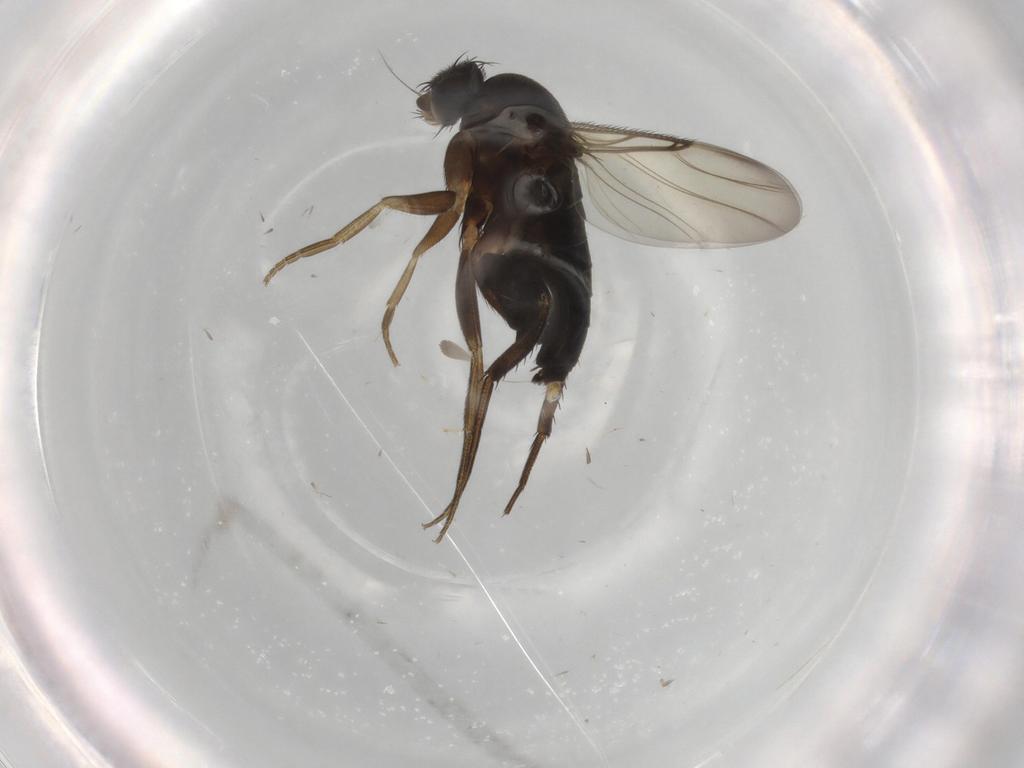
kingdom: Animalia
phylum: Arthropoda
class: Insecta
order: Diptera
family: Phoridae
